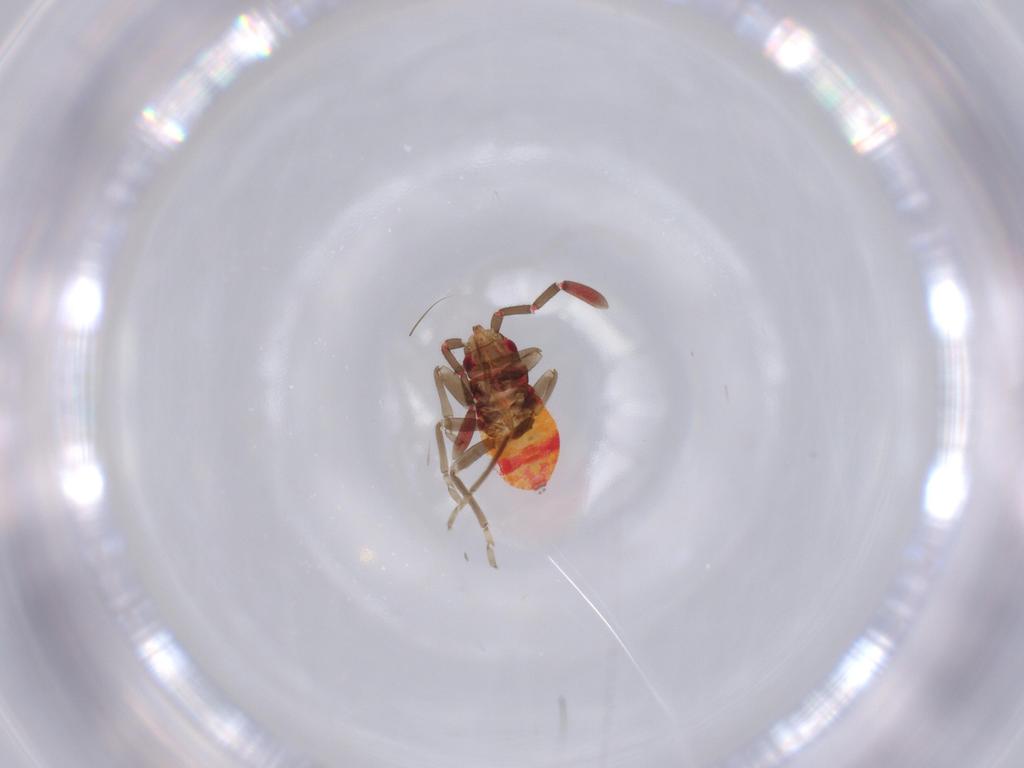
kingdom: Animalia
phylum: Arthropoda
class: Insecta
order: Hemiptera
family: Rhyparochromidae
